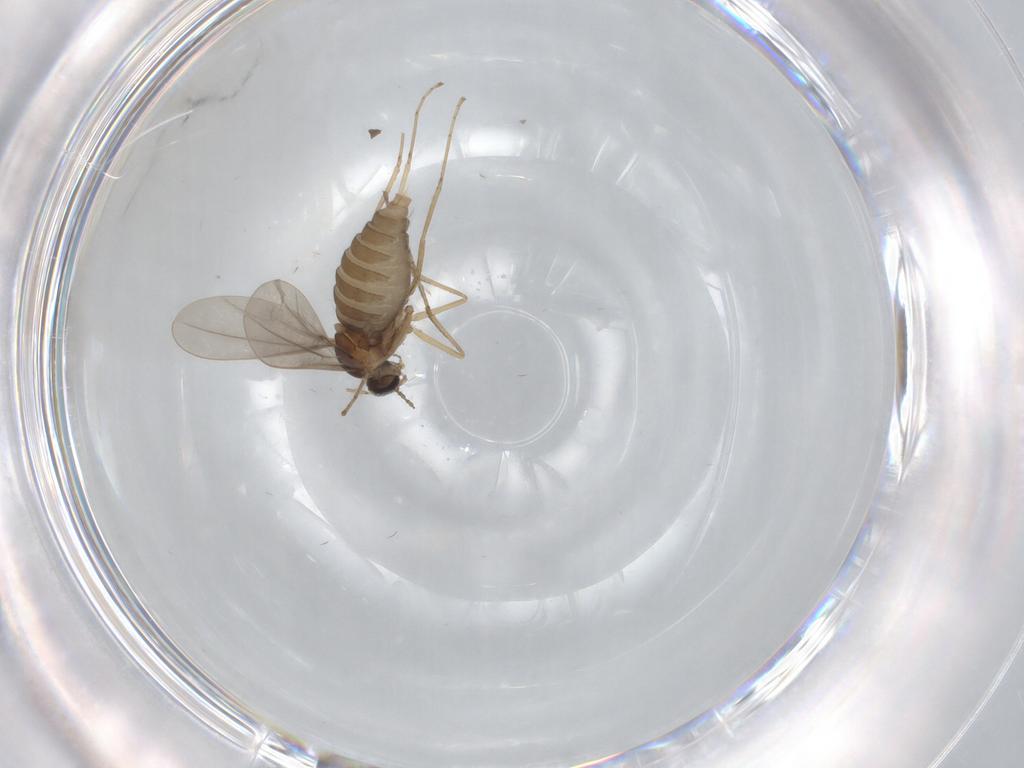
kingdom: Animalia
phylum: Arthropoda
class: Insecta
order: Diptera
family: Cecidomyiidae
